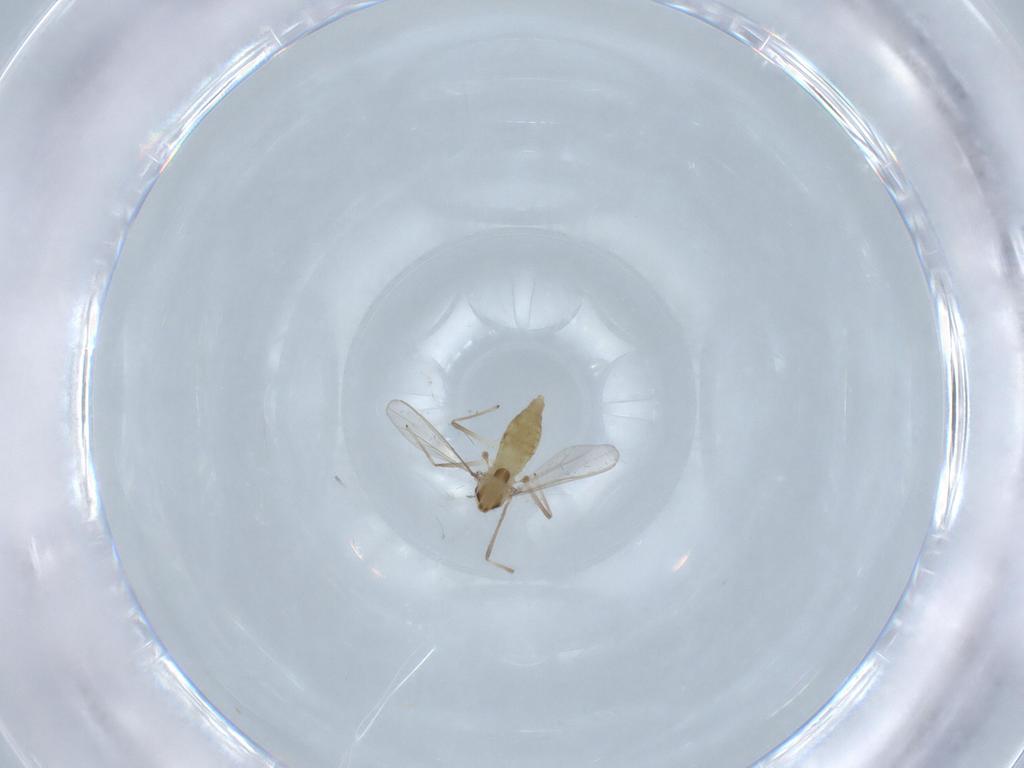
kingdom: Animalia
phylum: Arthropoda
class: Insecta
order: Diptera
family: Chironomidae
